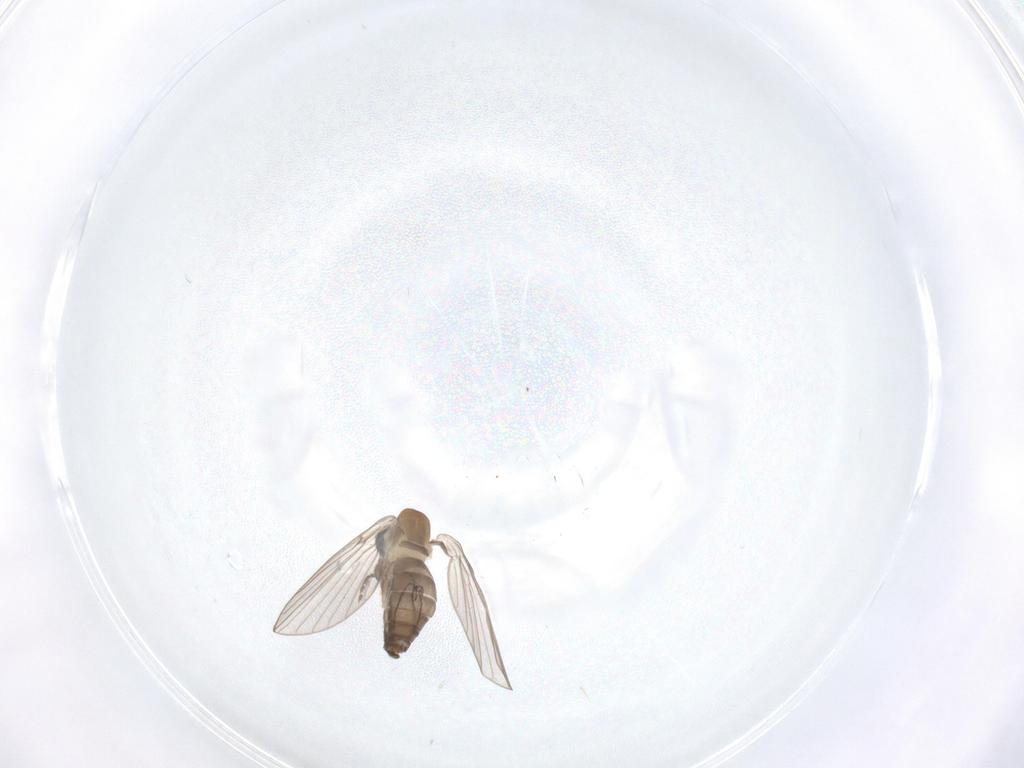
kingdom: Animalia
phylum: Arthropoda
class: Insecta
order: Diptera
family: Psychodidae
